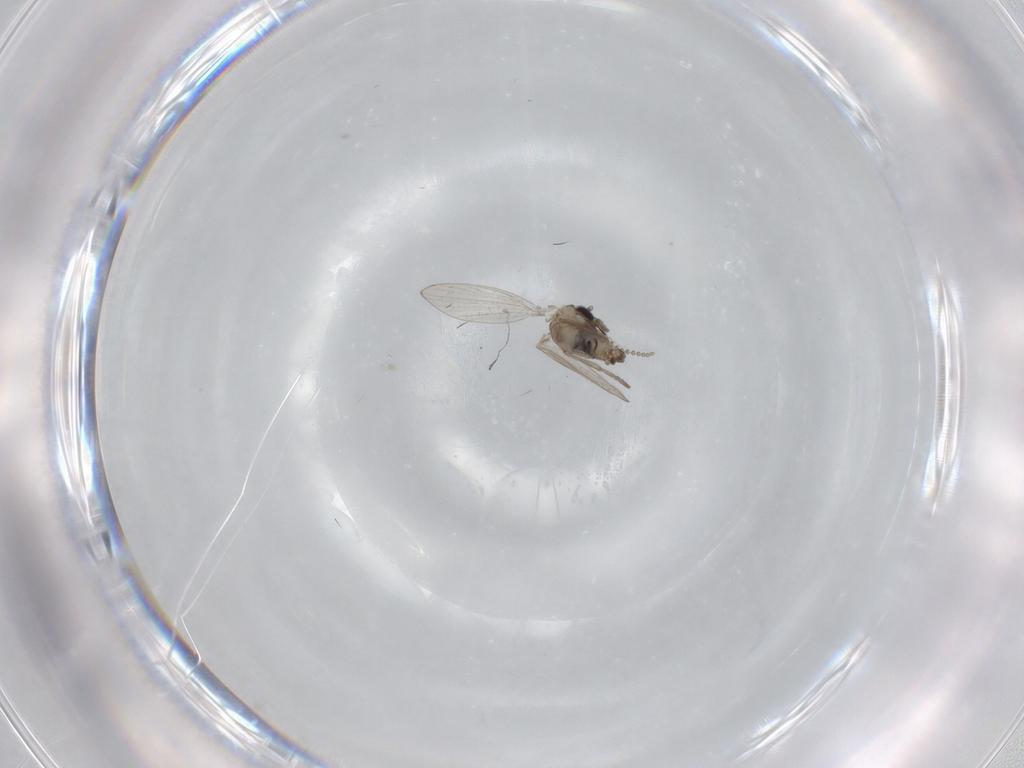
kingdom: Animalia
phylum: Arthropoda
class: Insecta
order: Diptera
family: Psychodidae
